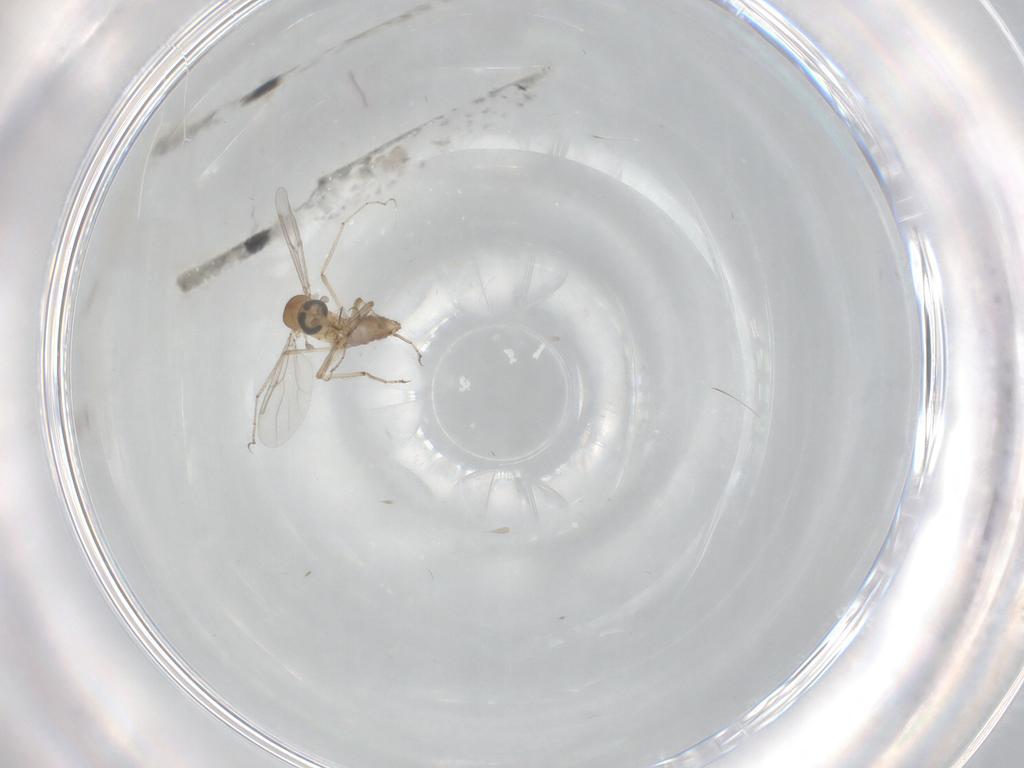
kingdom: Animalia
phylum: Arthropoda
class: Insecta
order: Diptera
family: Ceratopogonidae
